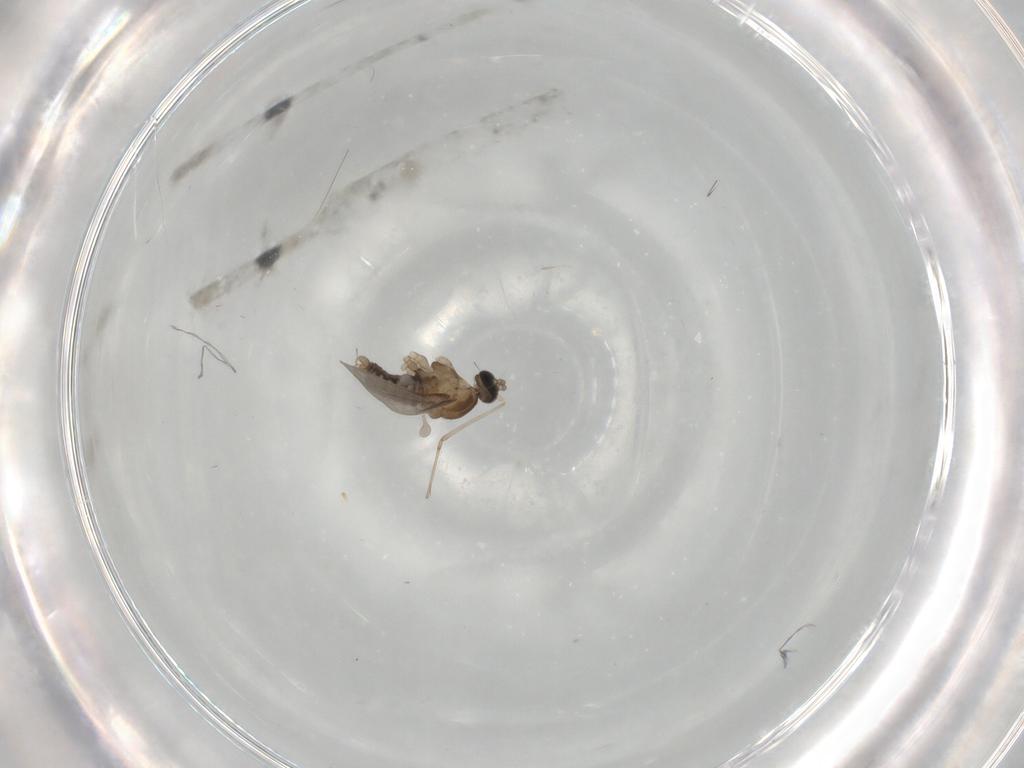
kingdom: Animalia
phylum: Arthropoda
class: Insecta
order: Diptera
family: Cecidomyiidae
